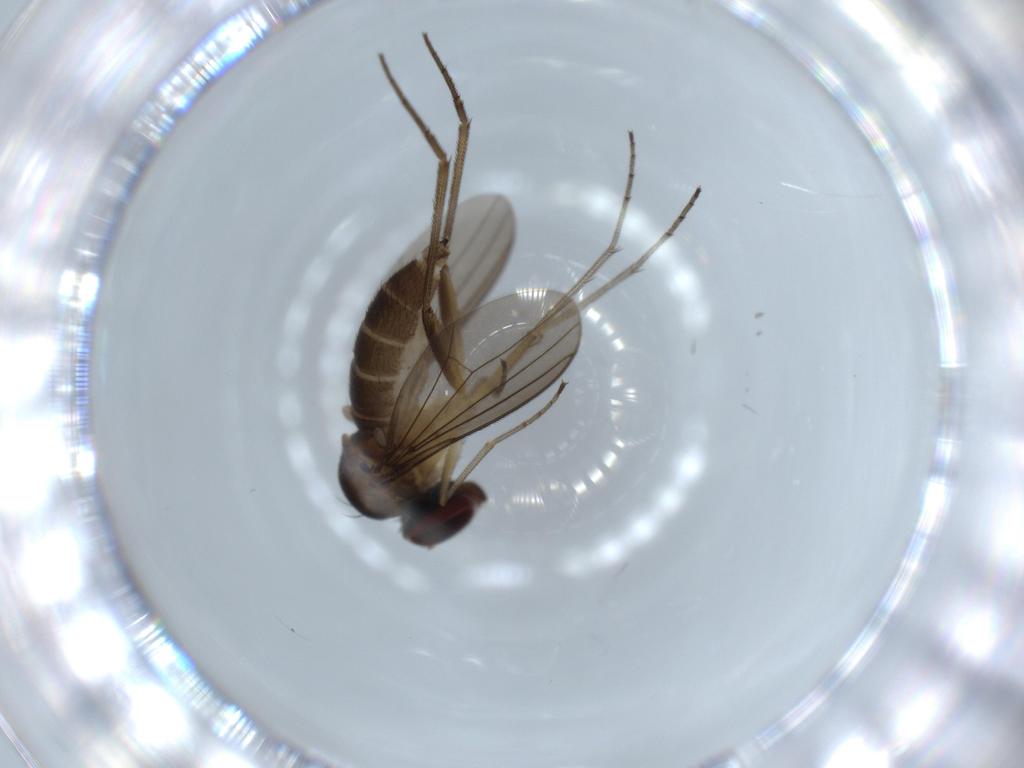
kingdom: Animalia
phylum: Arthropoda
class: Insecta
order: Diptera
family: Dolichopodidae
